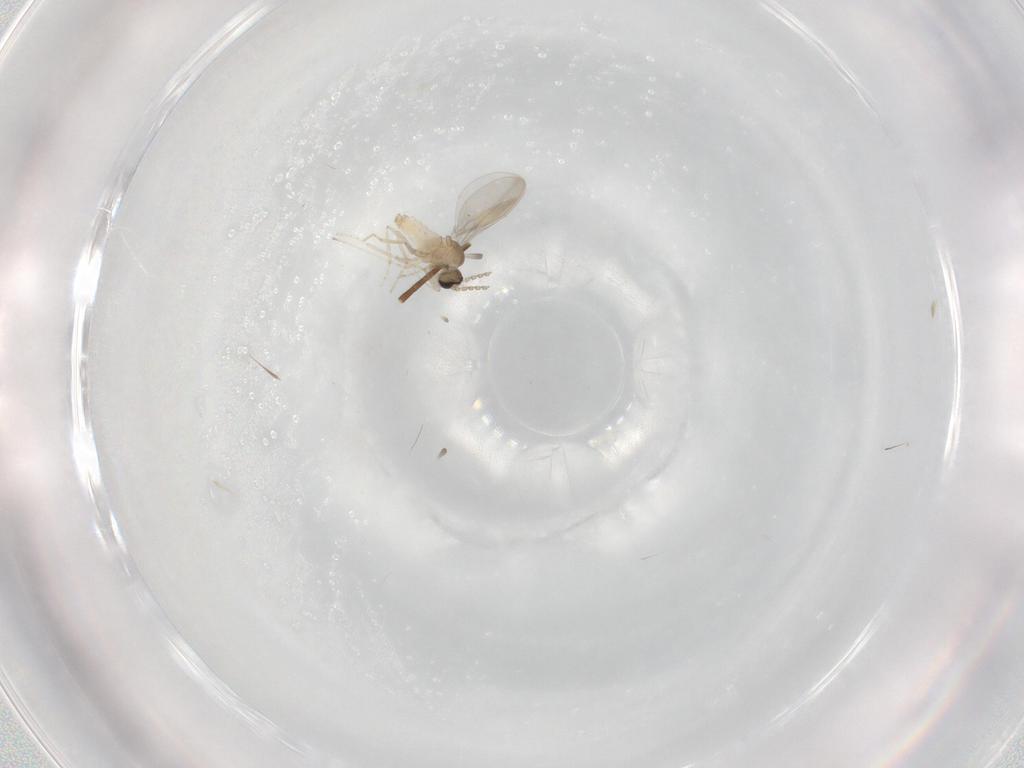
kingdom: Animalia
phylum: Arthropoda
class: Insecta
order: Diptera
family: Cecidomyiidae
